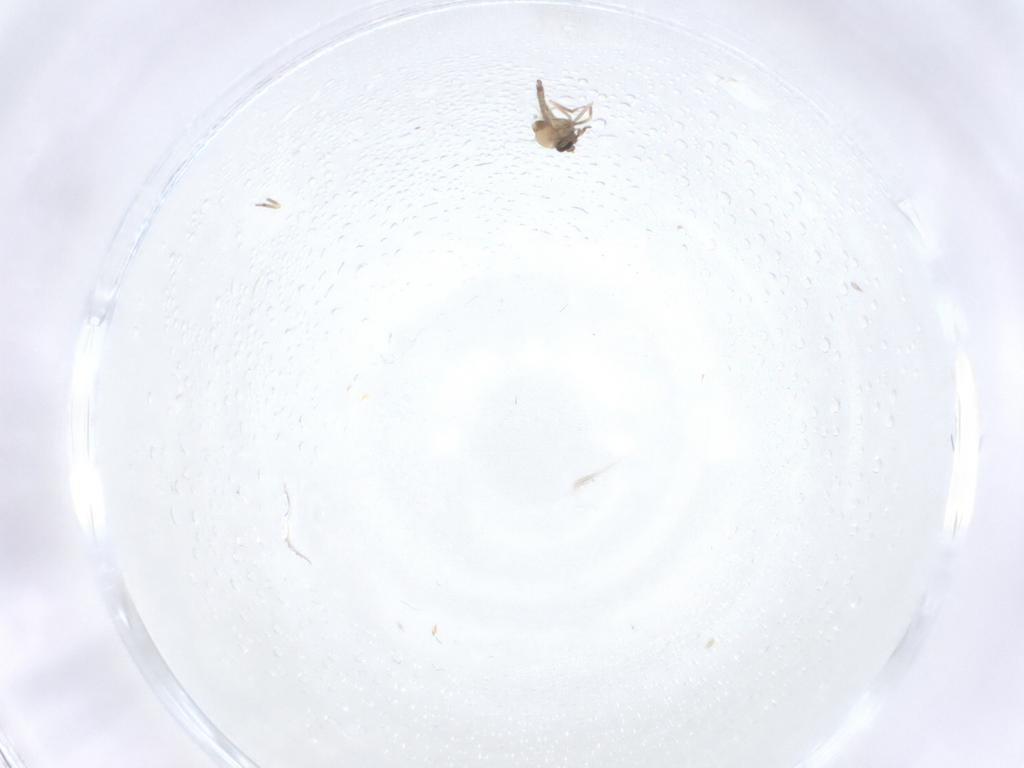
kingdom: Animalia
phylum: Arthropoda
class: Insecta
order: Diptera
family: Ceratopogonidae
